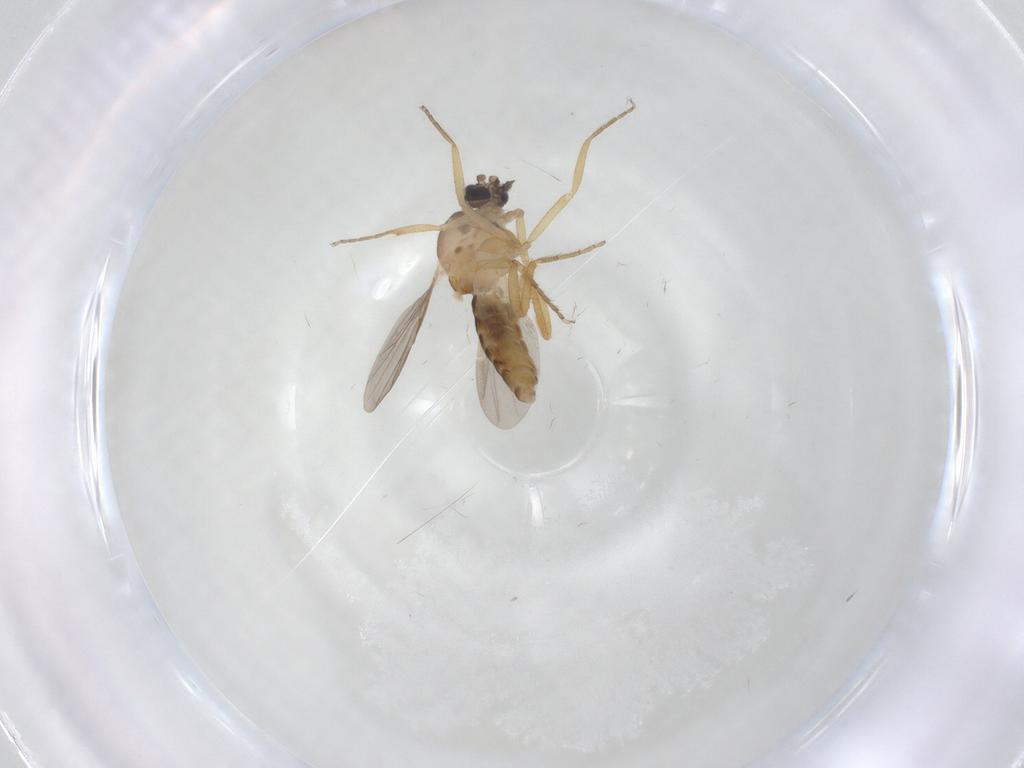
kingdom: Animalia
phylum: Arthropoda
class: Insecta
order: Diptera
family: Ceratopogonidae
